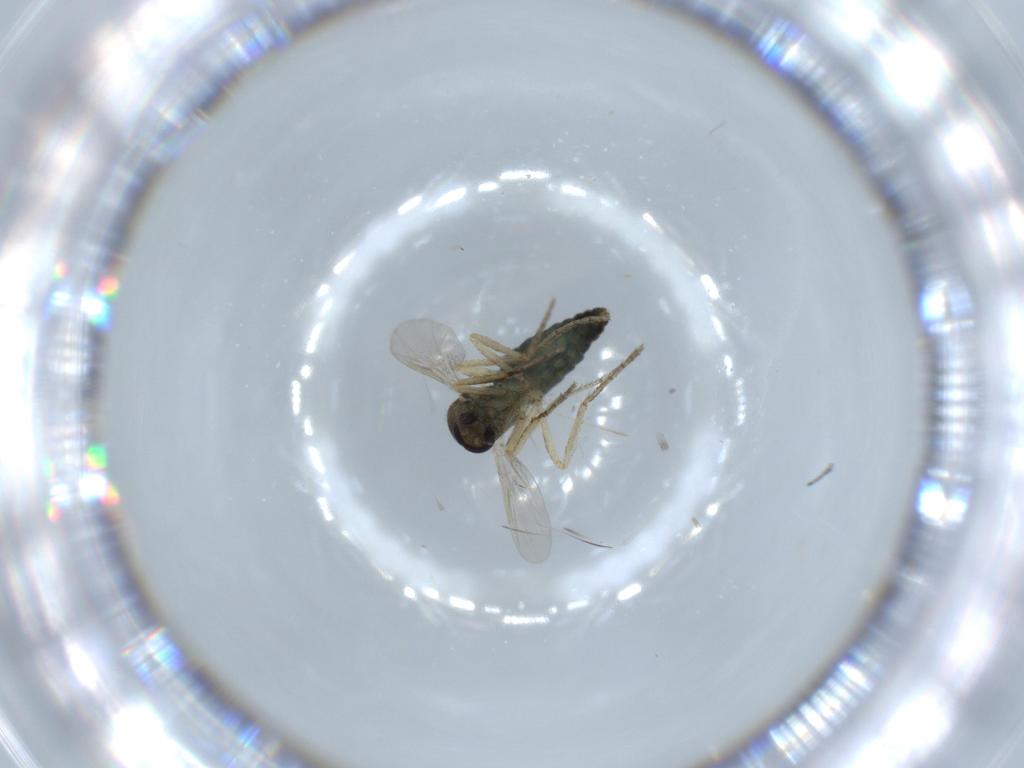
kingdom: Animalia
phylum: Arthropoda
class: Insecta
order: Diptera
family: Ceratopogonidae
